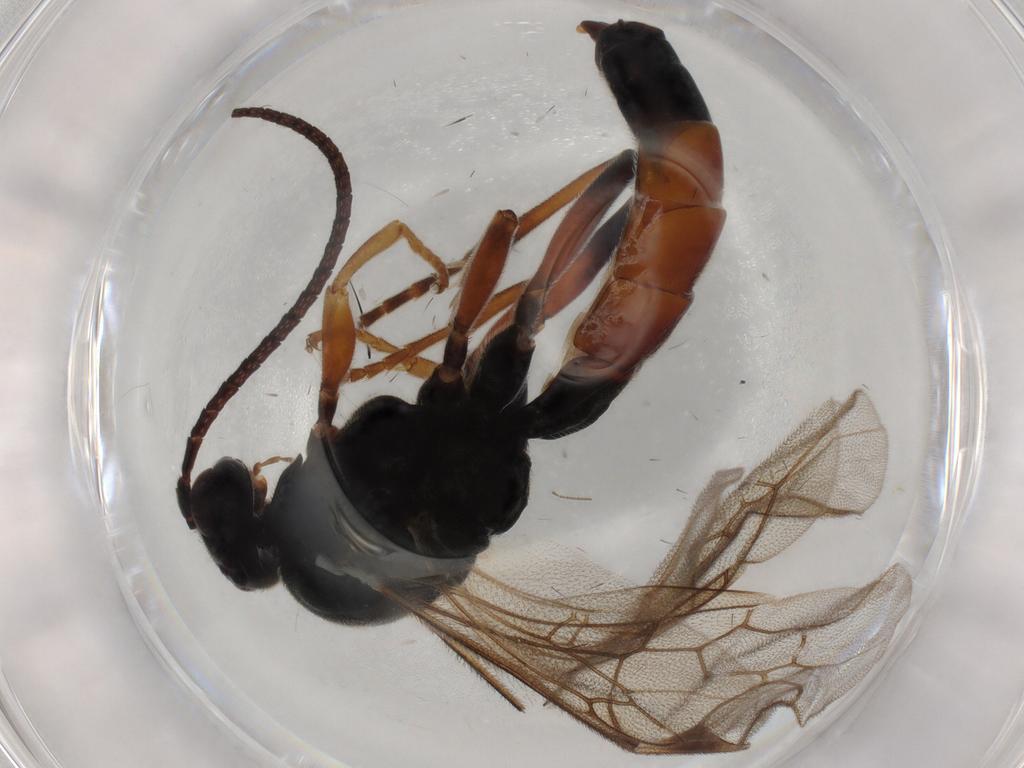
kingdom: Animalia
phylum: Arthropoda
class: Insecta
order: Hymenoptera
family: Ichneumonidae
